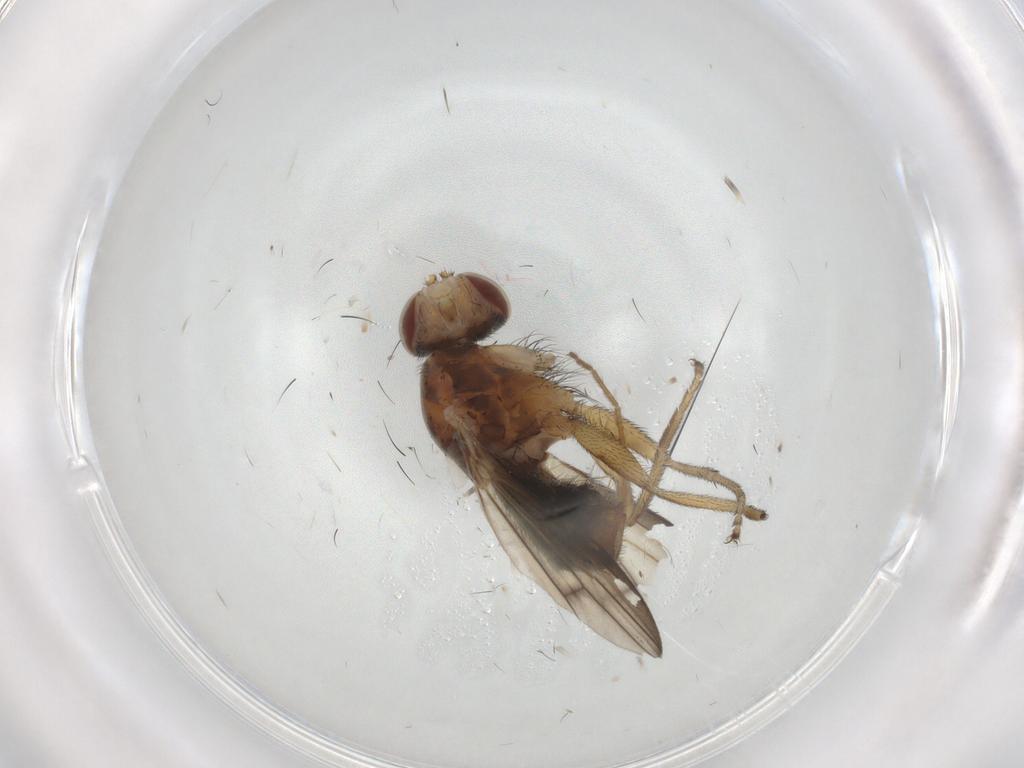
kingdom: Animalia
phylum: Arthropoda
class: Insecta
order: Diptera
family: Heleomyzidae
